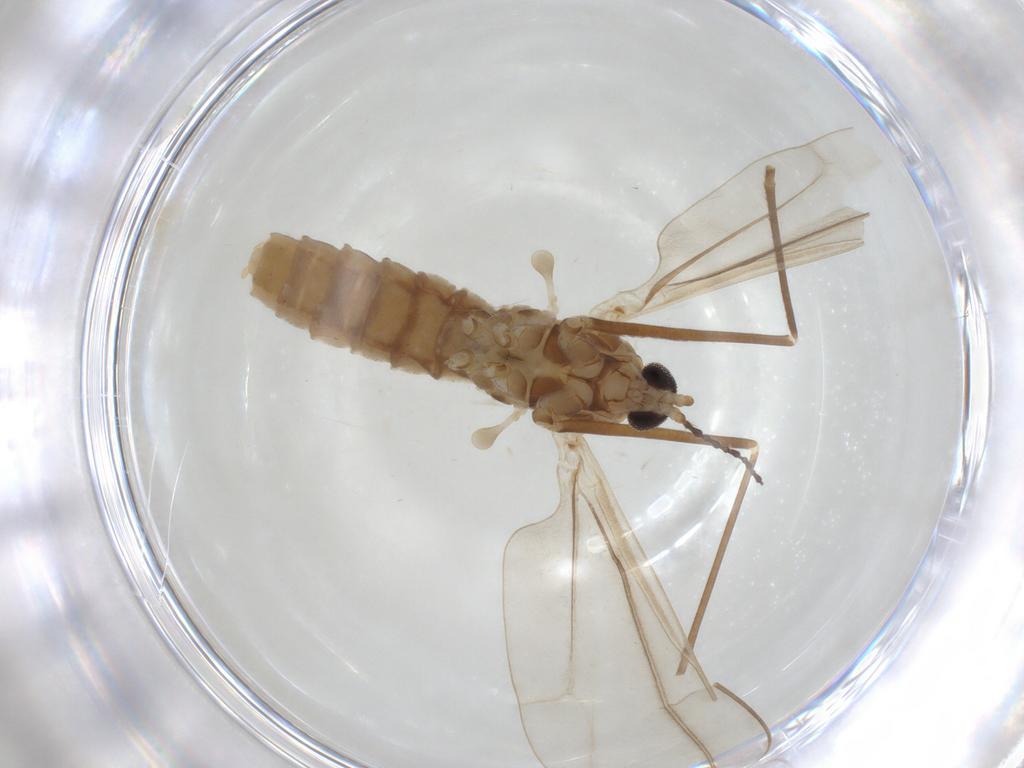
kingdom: Animalia
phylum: Arthropoda
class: Insecta
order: Diptera
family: Cecidomyiidae
